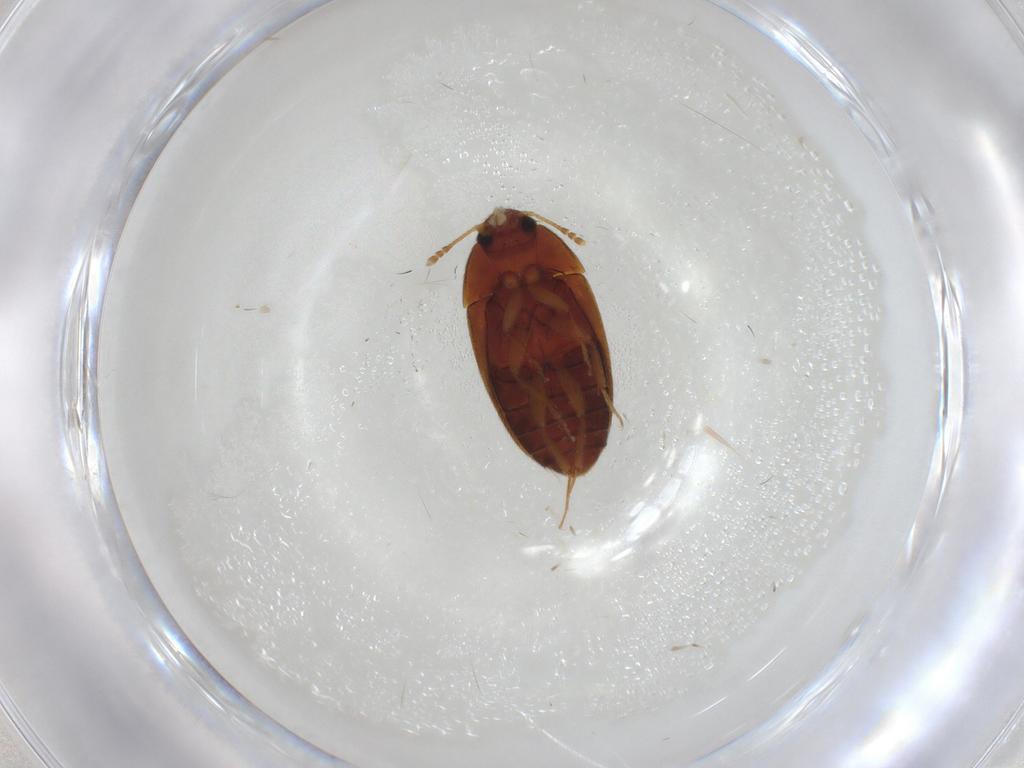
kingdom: Animalia
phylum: Arthropoda
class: Insecta
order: Coleoptera
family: Mycetophagidae
